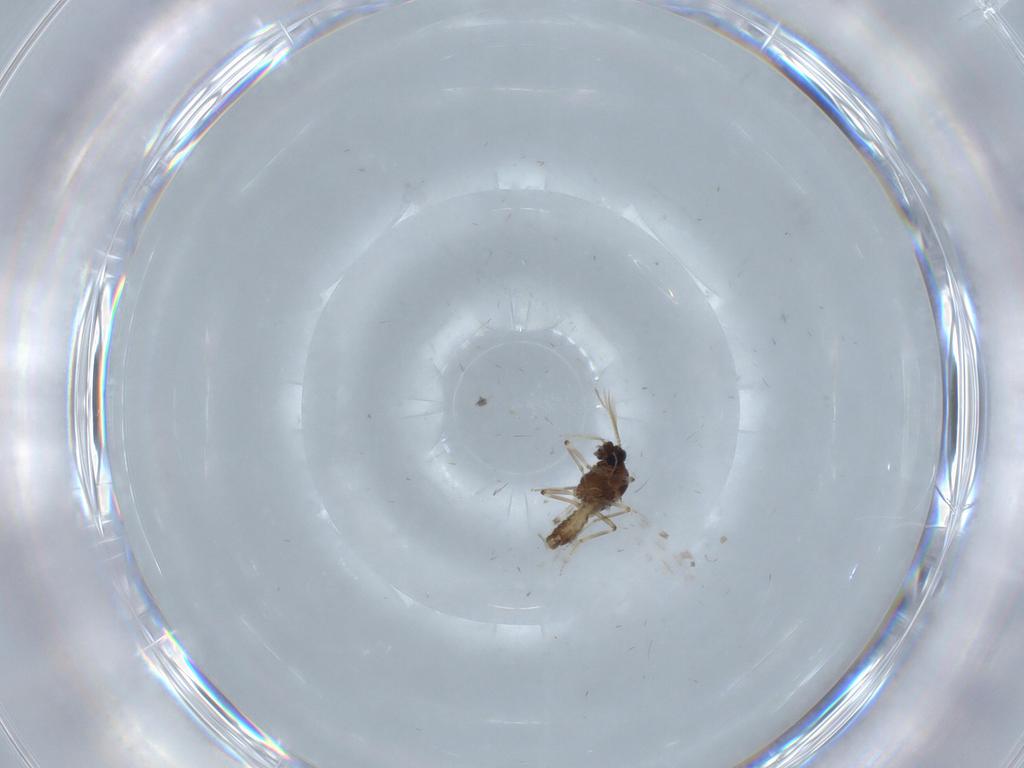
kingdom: Animalia
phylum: Arthropoda
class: Insecta
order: Diptera
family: Culicidae
